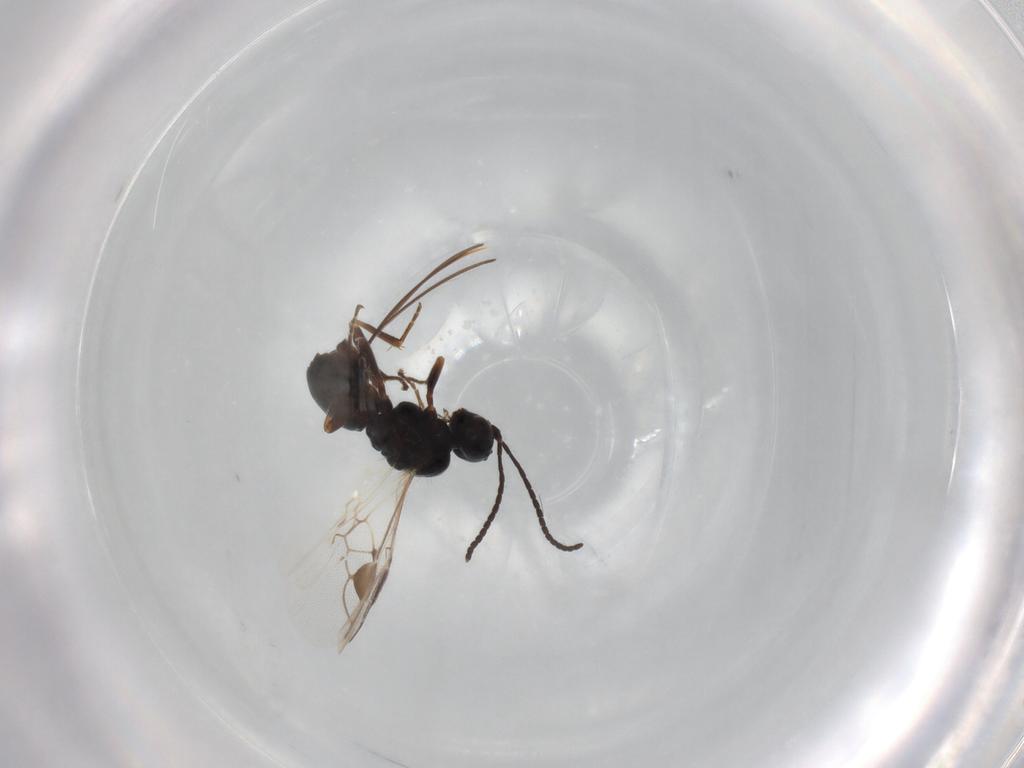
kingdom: Animalia
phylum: Arthropoda
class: Insecta
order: Hymenoptera
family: Braconidae
